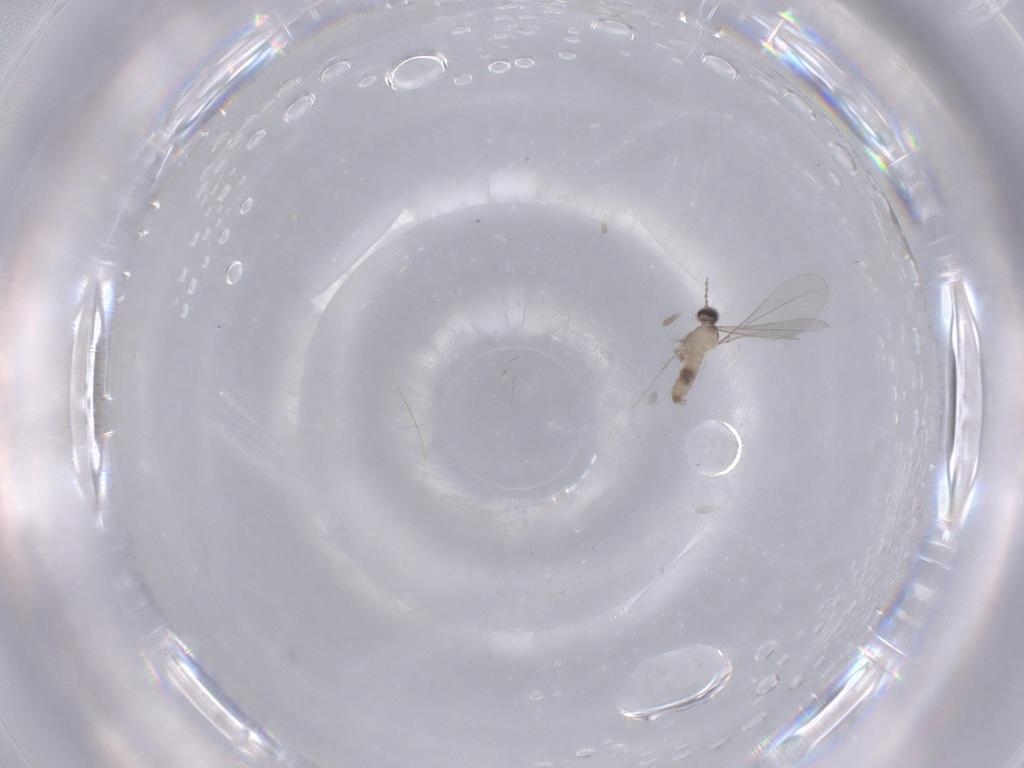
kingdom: Animalia
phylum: Arthropoda
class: Insecta
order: Diptera
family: Cecidomyiidae
